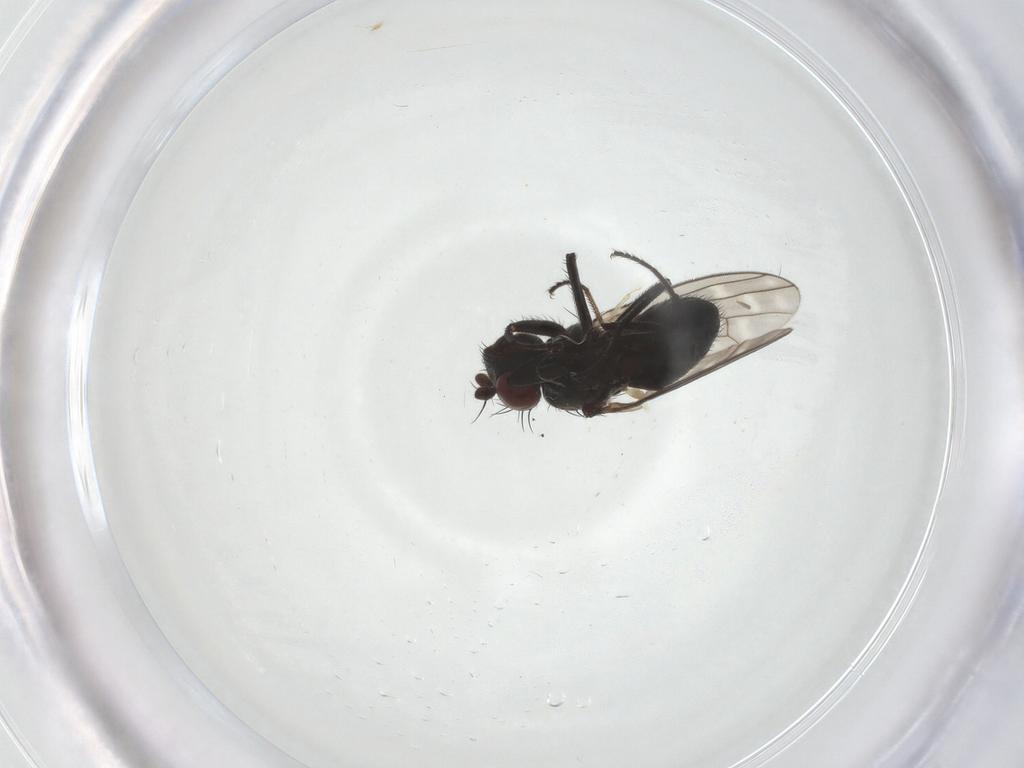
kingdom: Animalia
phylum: Arthropoda
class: Insecta
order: Diptera
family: Ephydridae
